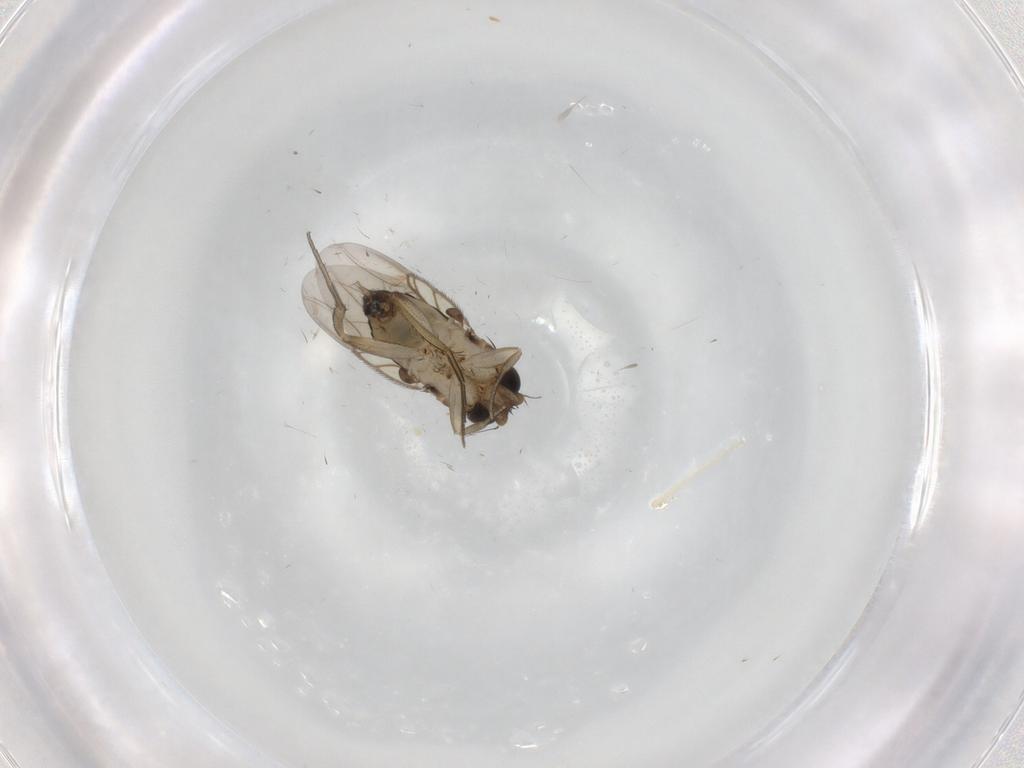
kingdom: Animalia
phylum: Arthropoda
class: Insecta
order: Diptera
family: Phoridae
